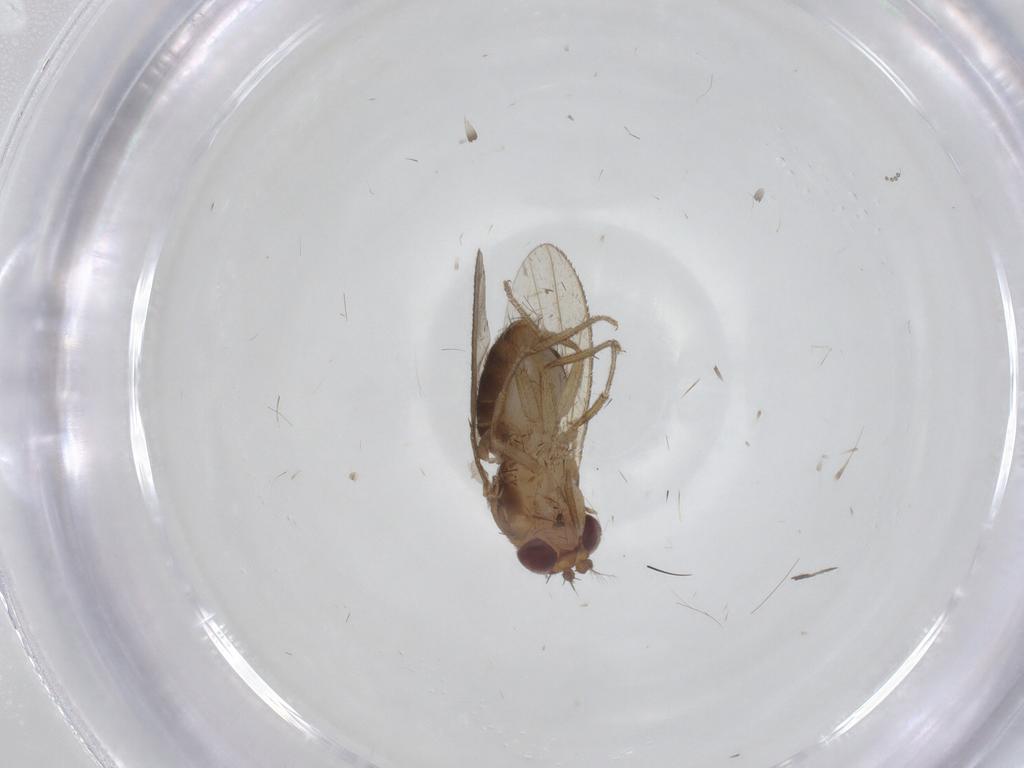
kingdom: Animalia
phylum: Arthropoda
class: Insecta
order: Diptera
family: Drosophilidae
